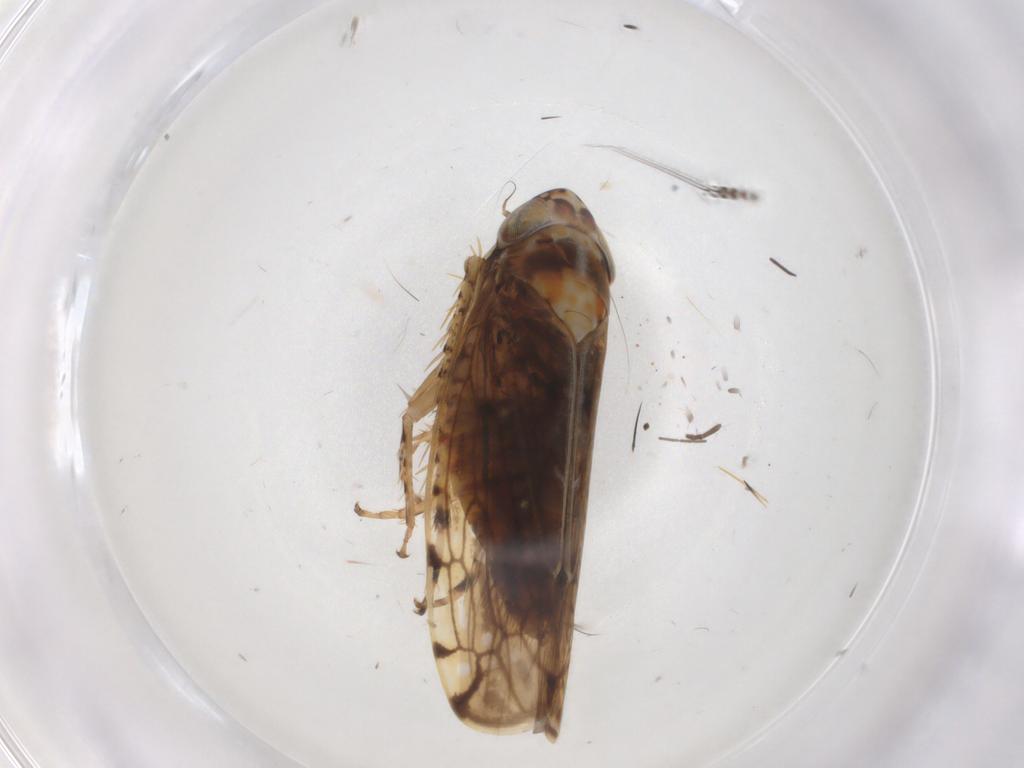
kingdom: Animalia
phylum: Arthropoda
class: Insecta
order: Hemiptera
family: Cicadellidae
